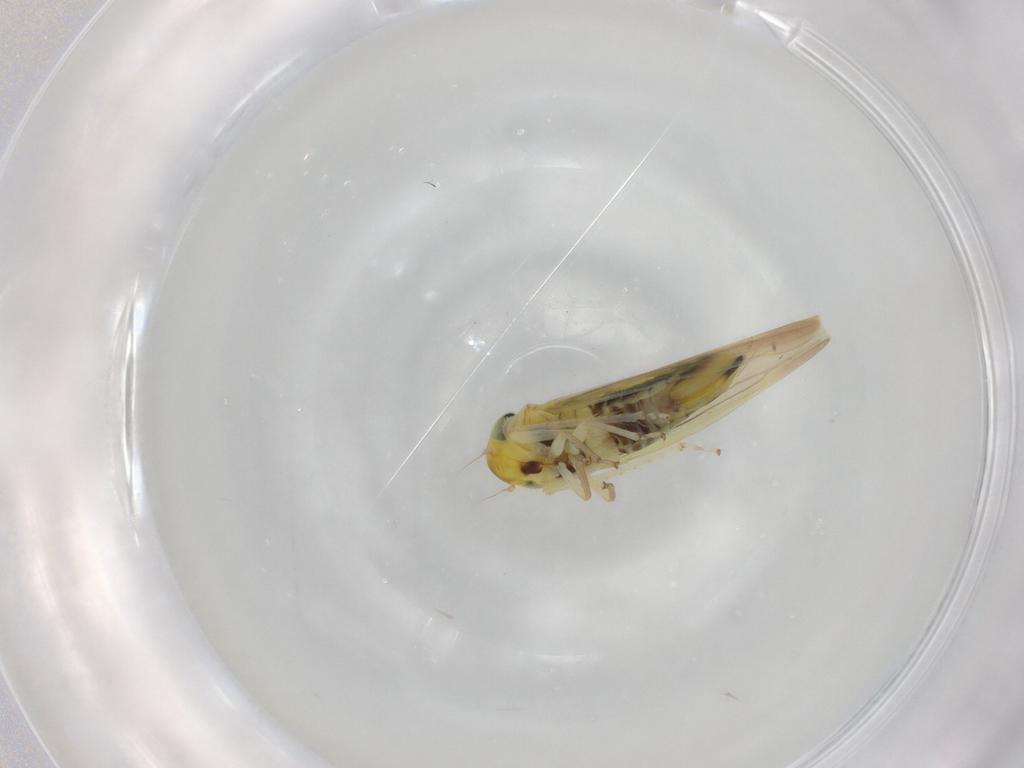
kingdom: Animalia
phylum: Arthropoda
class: Insecta
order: Hemiptera
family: Cicadellidae
